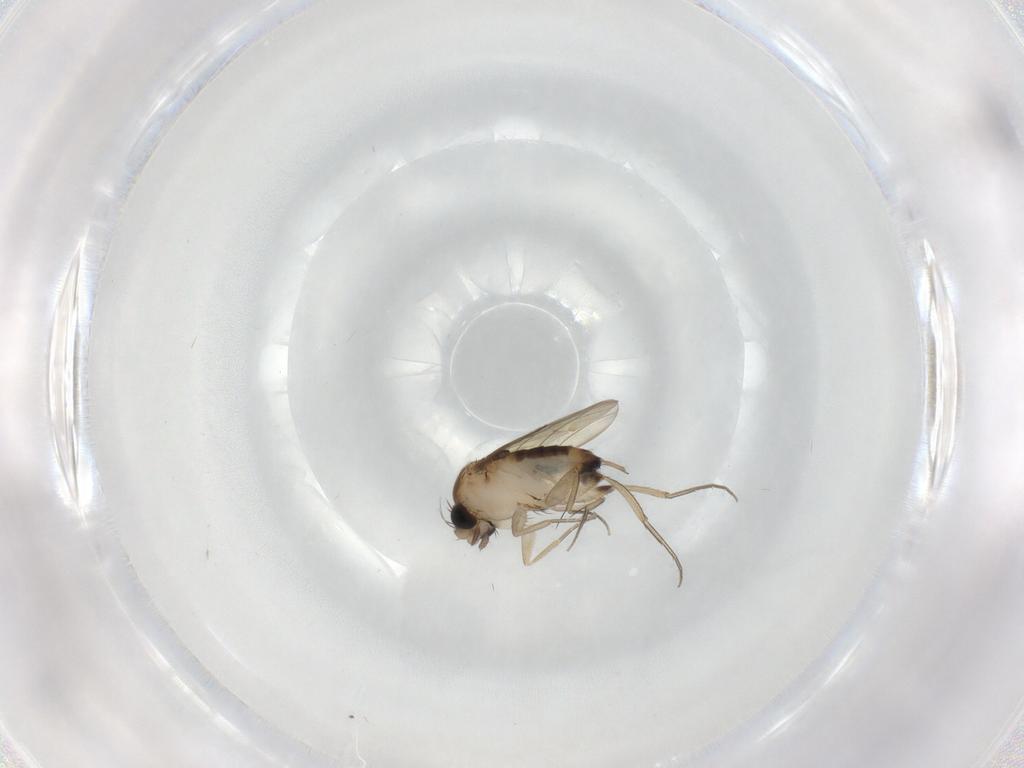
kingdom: Animalia
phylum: Arthropoda
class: Insecta
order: Diptera
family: Phoridae
